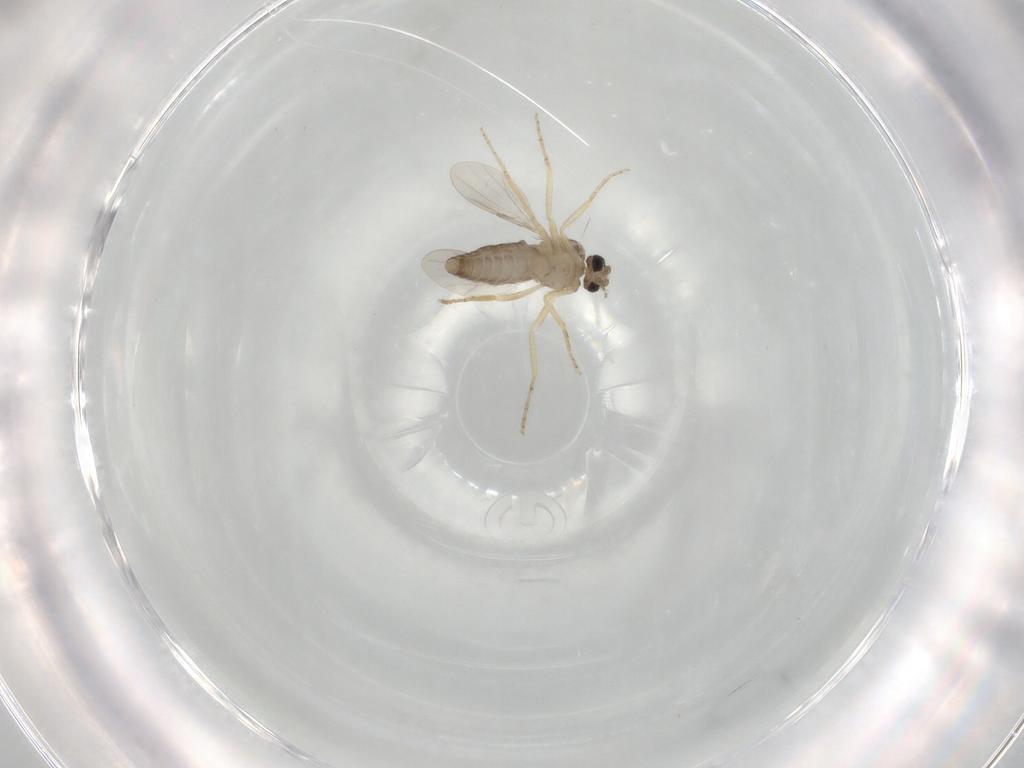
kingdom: Animalia
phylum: Arthropoda
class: Insecta
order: Diptera
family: Ceratopogonidae
